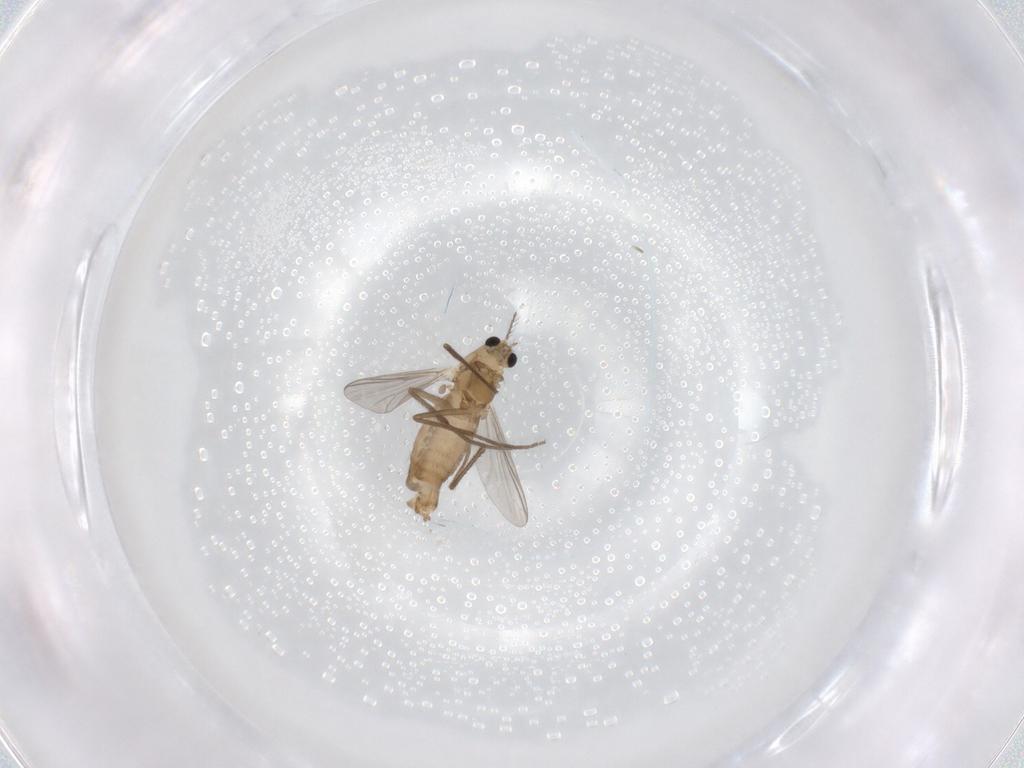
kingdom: Animalia
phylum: Arthropoda
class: Insecta
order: Diptera
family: Chironomidae
